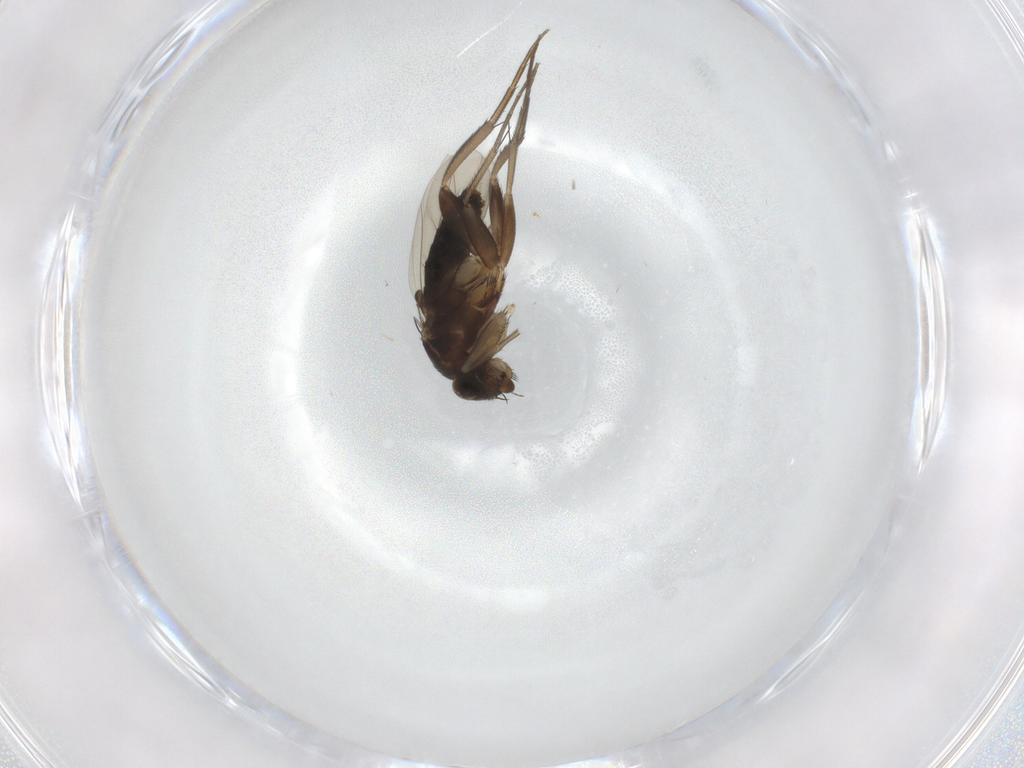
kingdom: Animalia
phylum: Arthropoda
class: Insecta
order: Diptera
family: Phoridae
